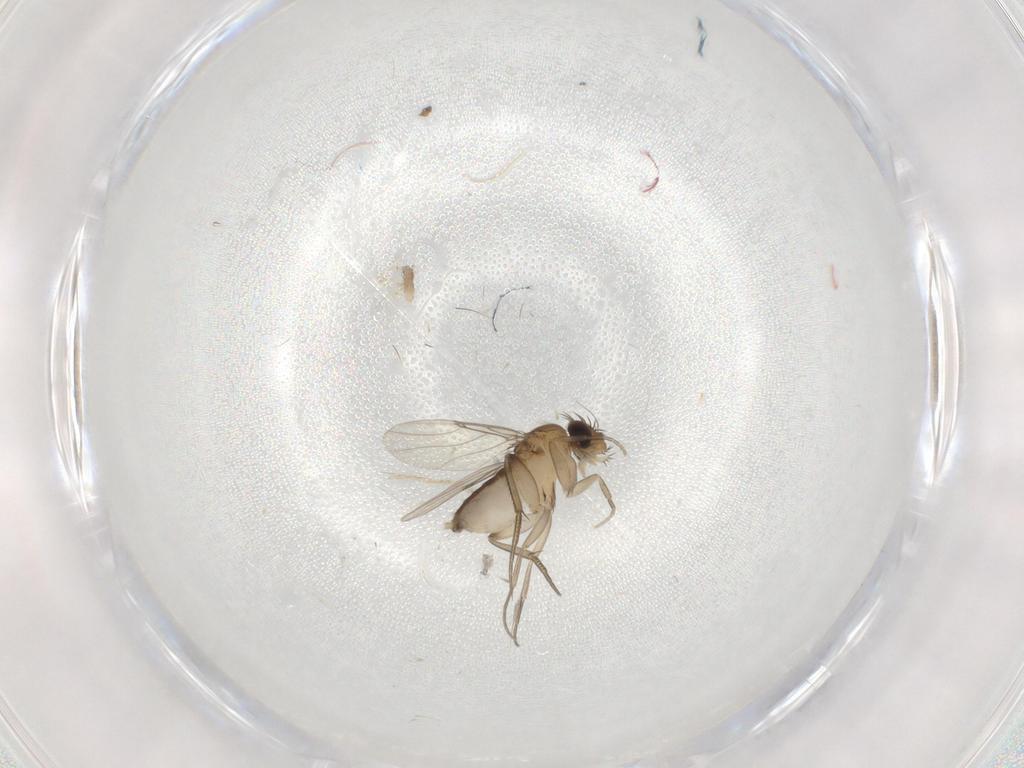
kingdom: Animalia
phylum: Arthropoda
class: Insecta
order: Diptera
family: Phoridae
